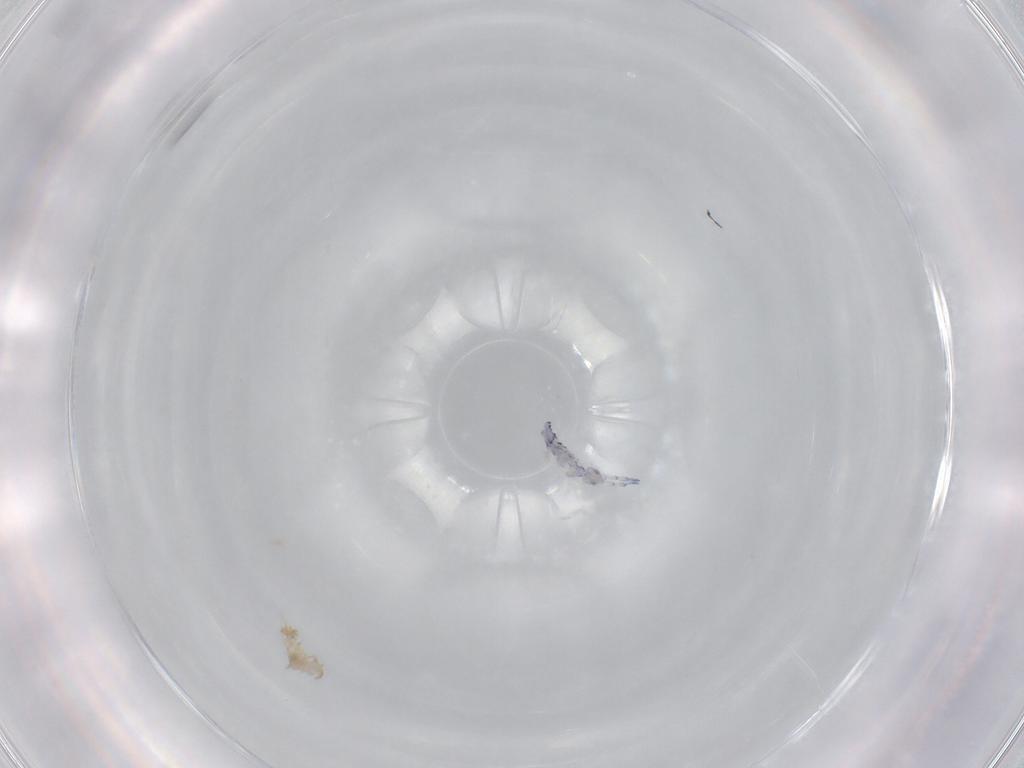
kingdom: Animalia
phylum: Arthropoda
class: Collembola
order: Entomobryomorpha
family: Entomobryidae
